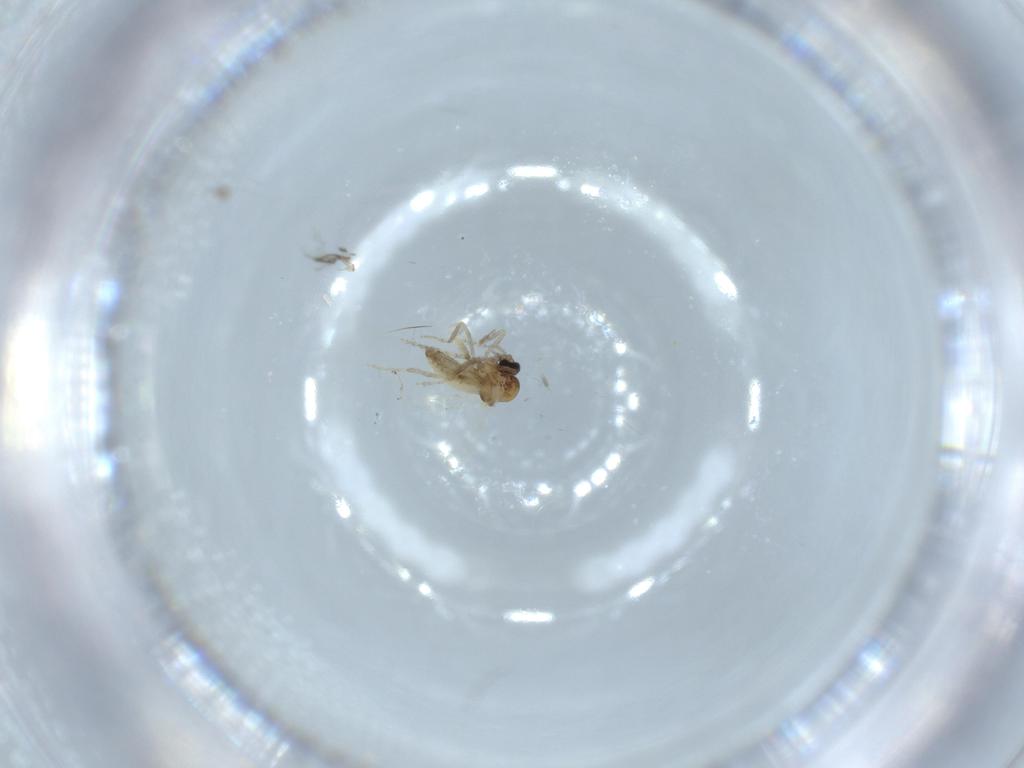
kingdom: Animalia
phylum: Arthropoda
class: Insecta
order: Diptera
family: Ceratopogonidae
